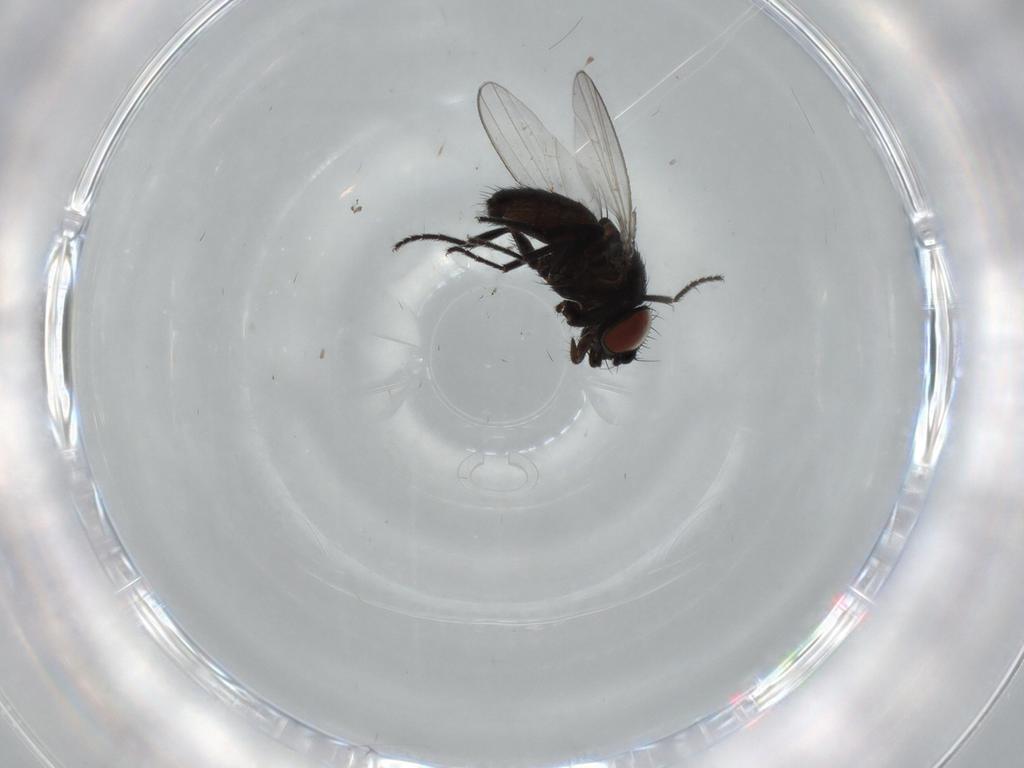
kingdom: Animalia
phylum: Arthropoda
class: Insecta
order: Diptera
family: Milichiidae
